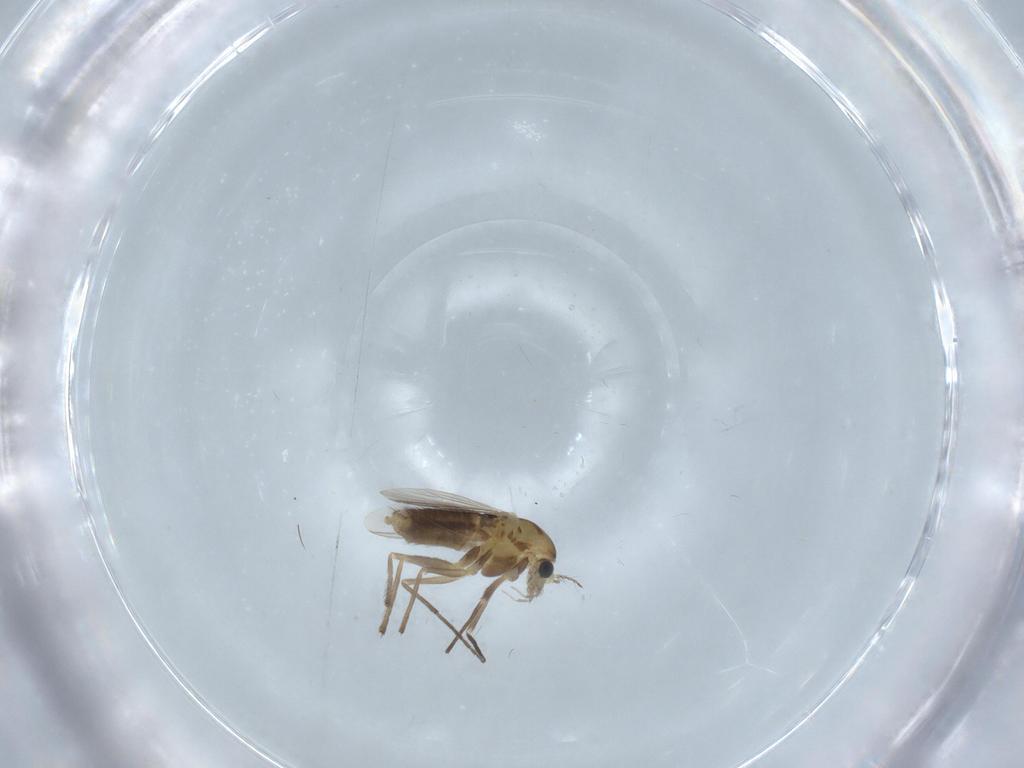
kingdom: Animalia
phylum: Arthropoda
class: Insecta
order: Diptera
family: Chironomidae
